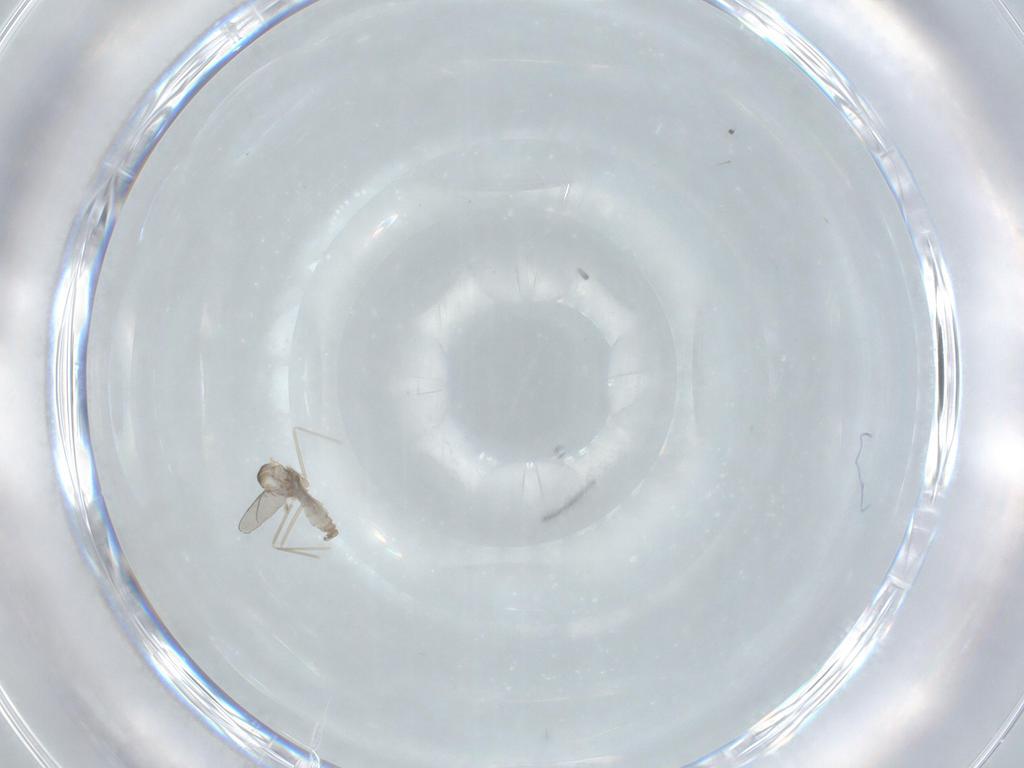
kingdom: Animalia
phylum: Arthropoda
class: Insecta
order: Diptera
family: Cecidomyiidae
